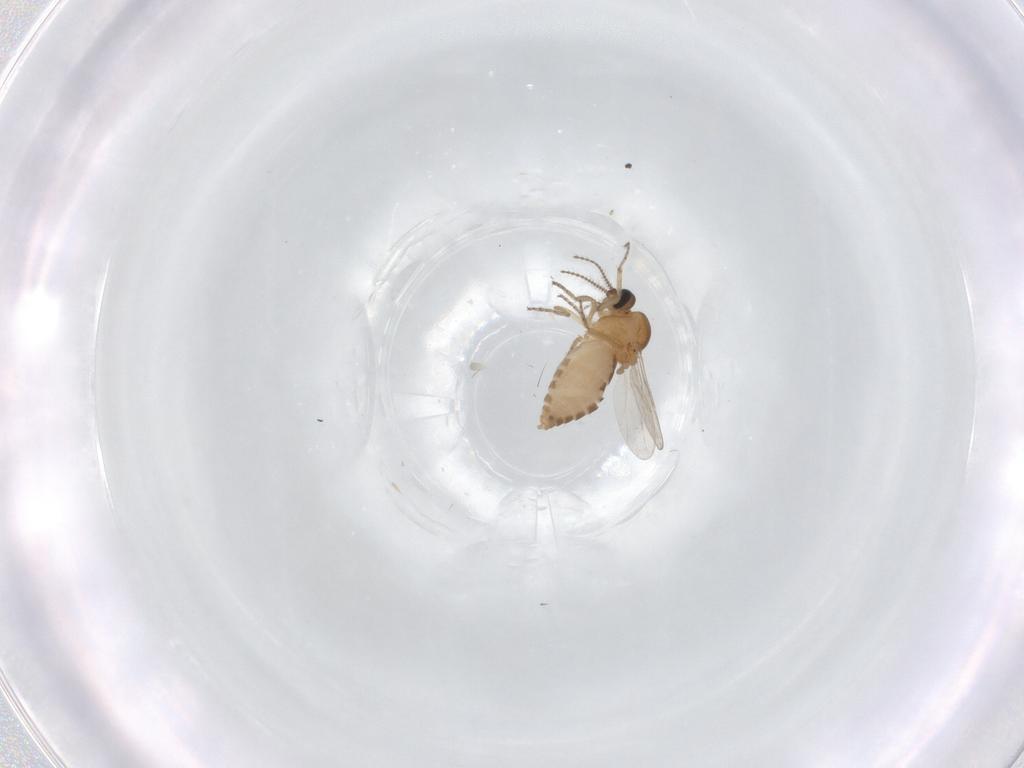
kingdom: Animalia
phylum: Arthropoda
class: Insecta
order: Diptera
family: Ceratopogonidae
